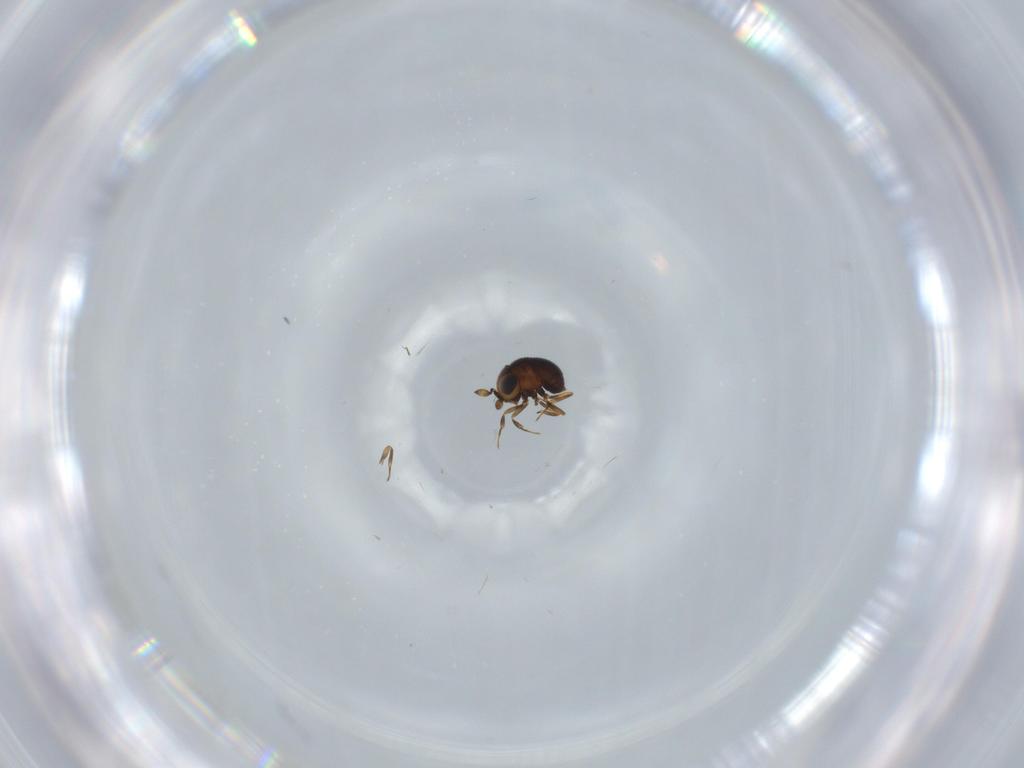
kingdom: Animalia
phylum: Arthropoda
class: Insecta
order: Hymenoptera
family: Scelionidae
